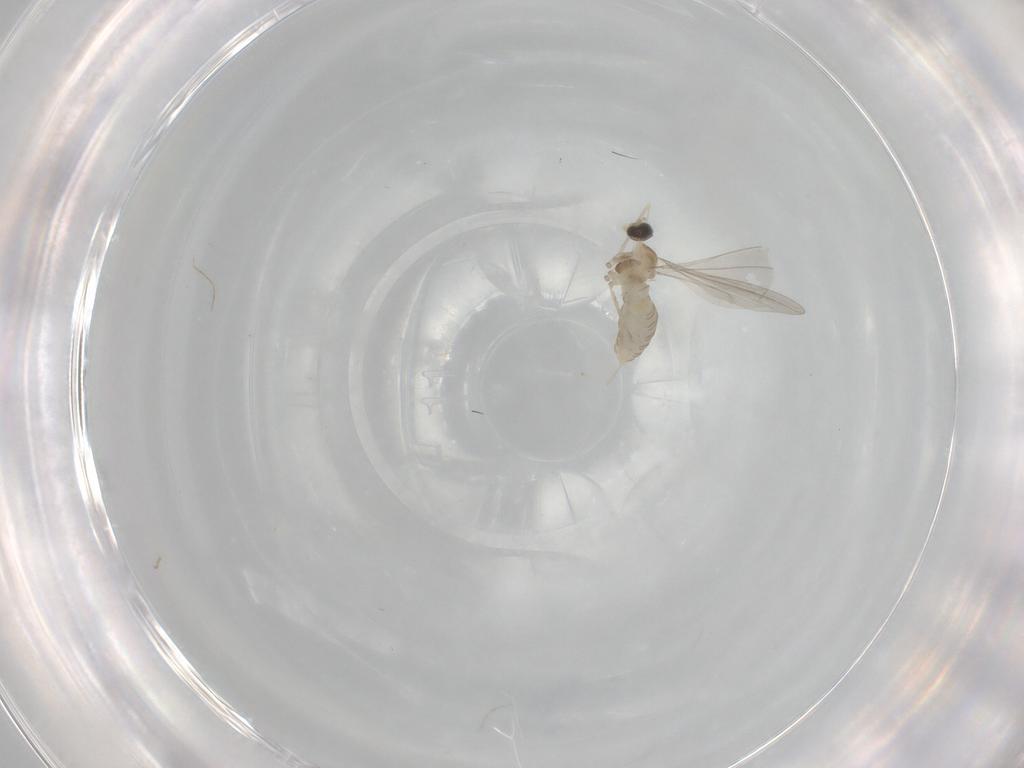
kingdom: Animalia
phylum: Arthropoda
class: Insecta
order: Diptera
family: Cecidomyiidae
